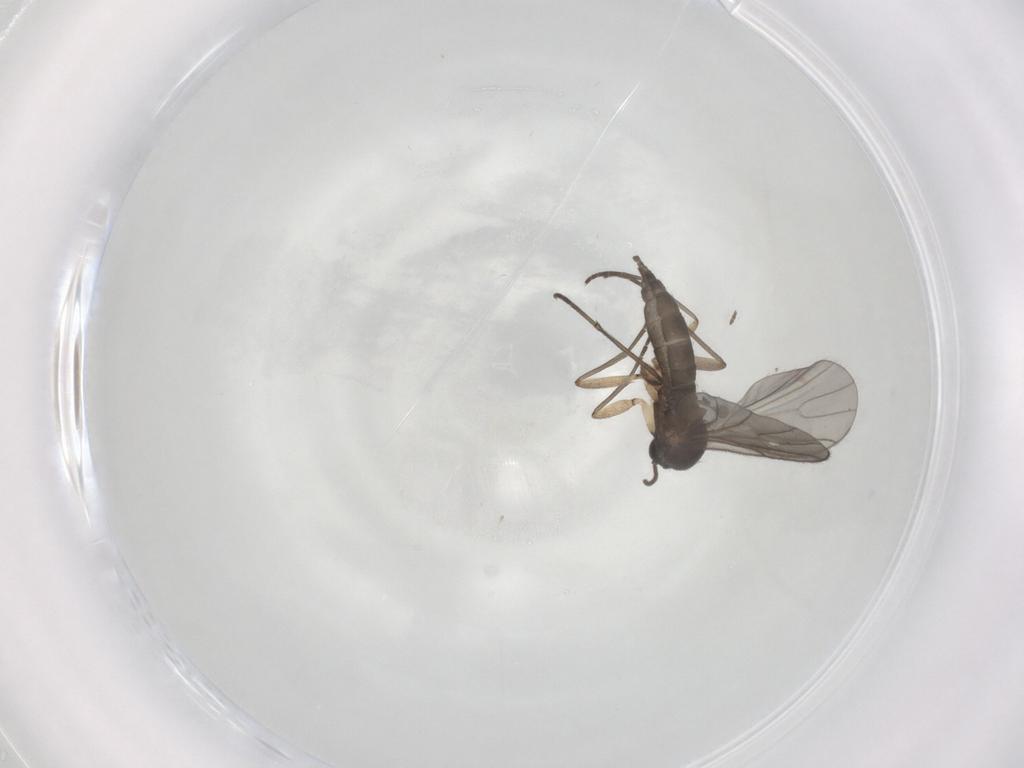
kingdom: Animalia
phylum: Arthropoda
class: Insecta
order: Diptera
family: Sciaridae
